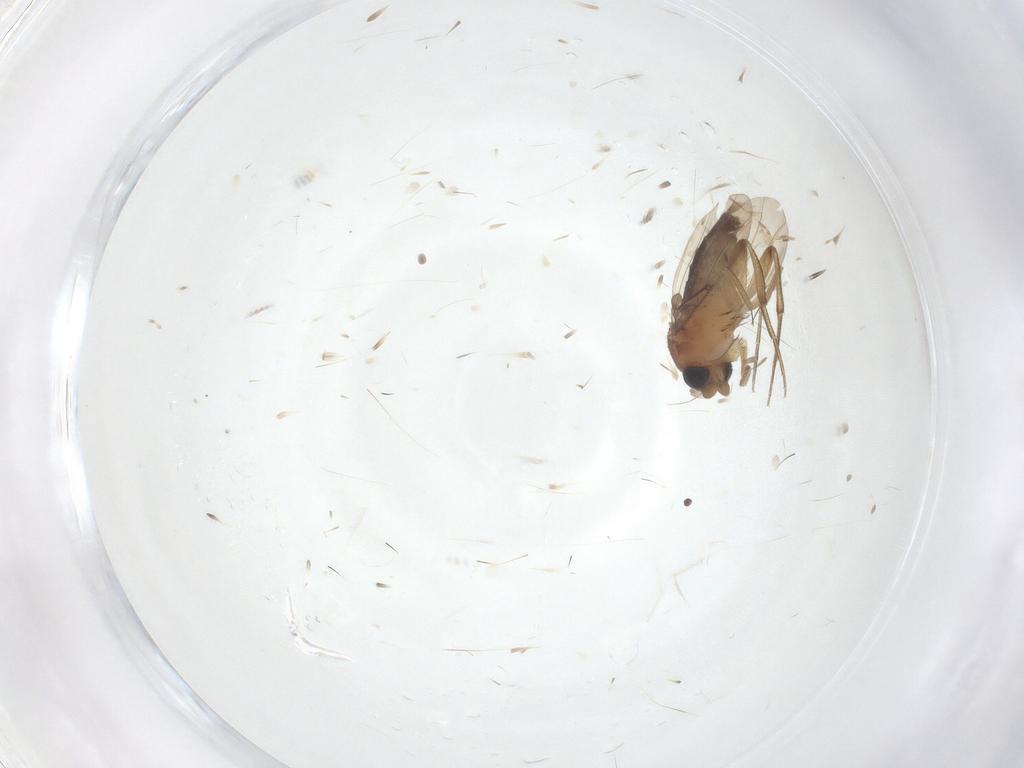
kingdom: Animalia
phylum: Arthropoda
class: Insecta
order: Diptera
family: Phoridae
